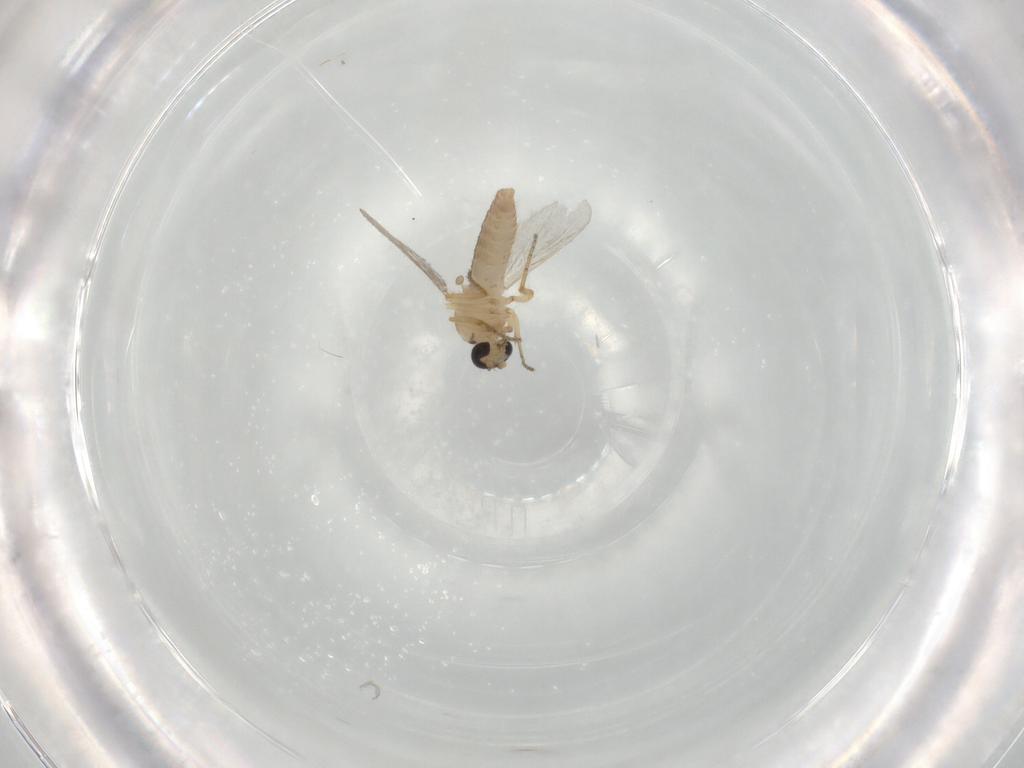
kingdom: Animalia
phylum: Arthropoda
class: Insecta
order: Diptera
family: Ceratopogonidae
